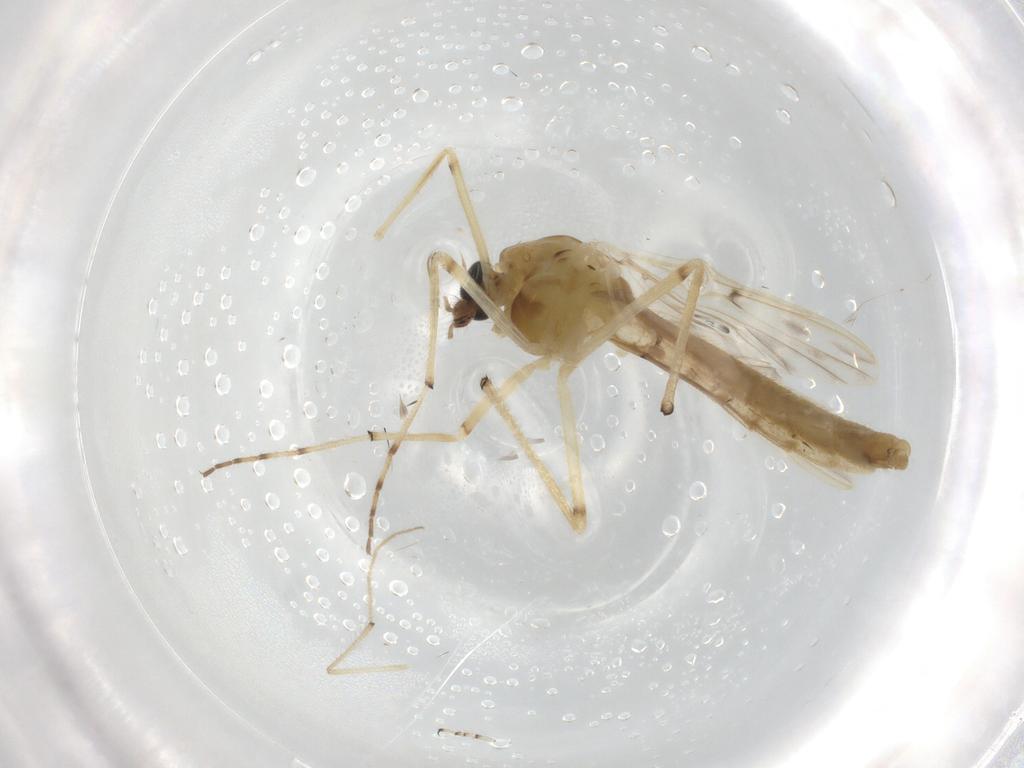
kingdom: Animalia
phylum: Arthropoda
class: Insecta
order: Diptera
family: Chironomidae
